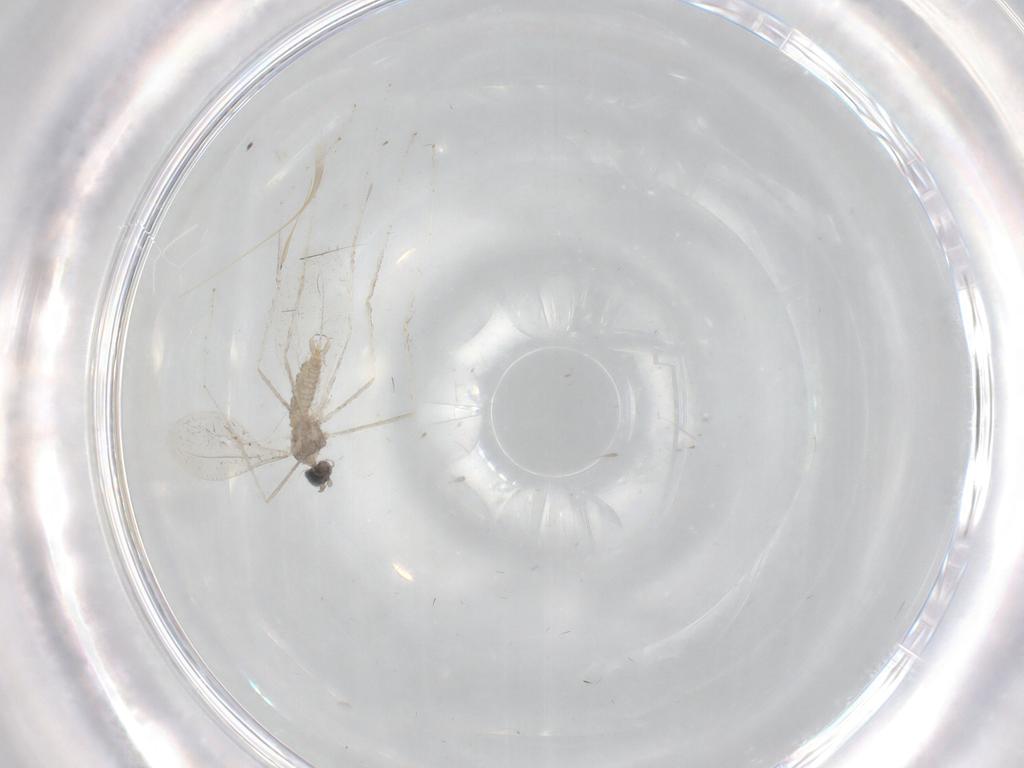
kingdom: Animalia
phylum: Arthropoda
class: Insecta
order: Diptera
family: Cecidomyiidae
